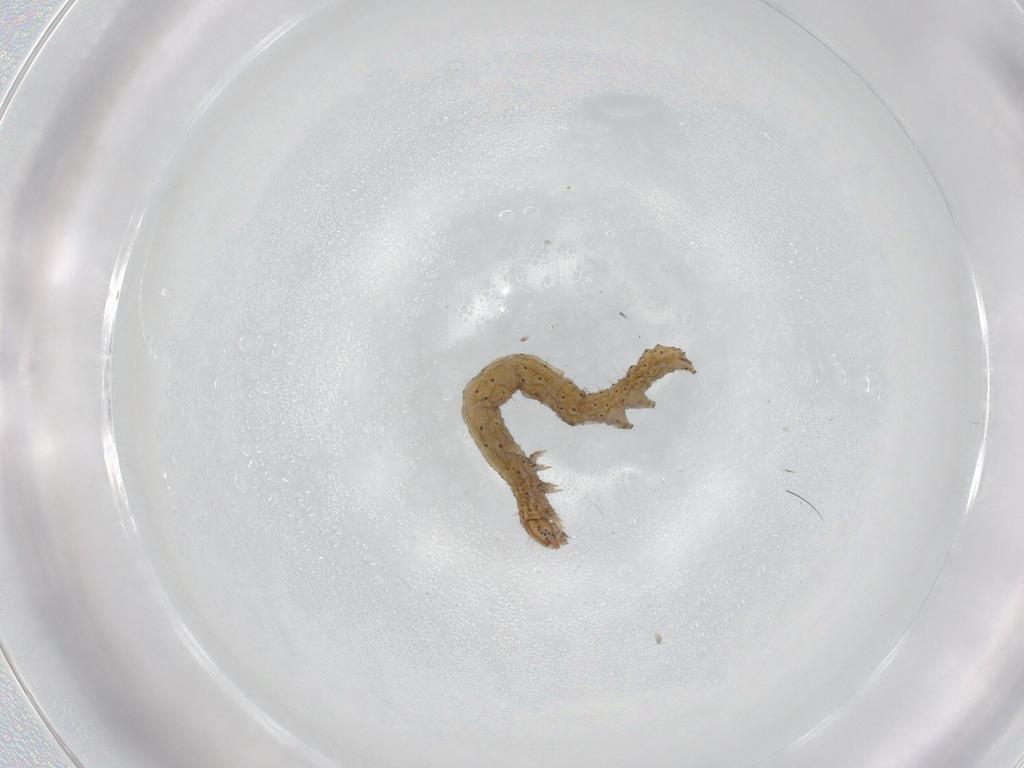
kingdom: Animalia
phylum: Arthropoda
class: Insecta
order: Lepidoptera
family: Erebidae
